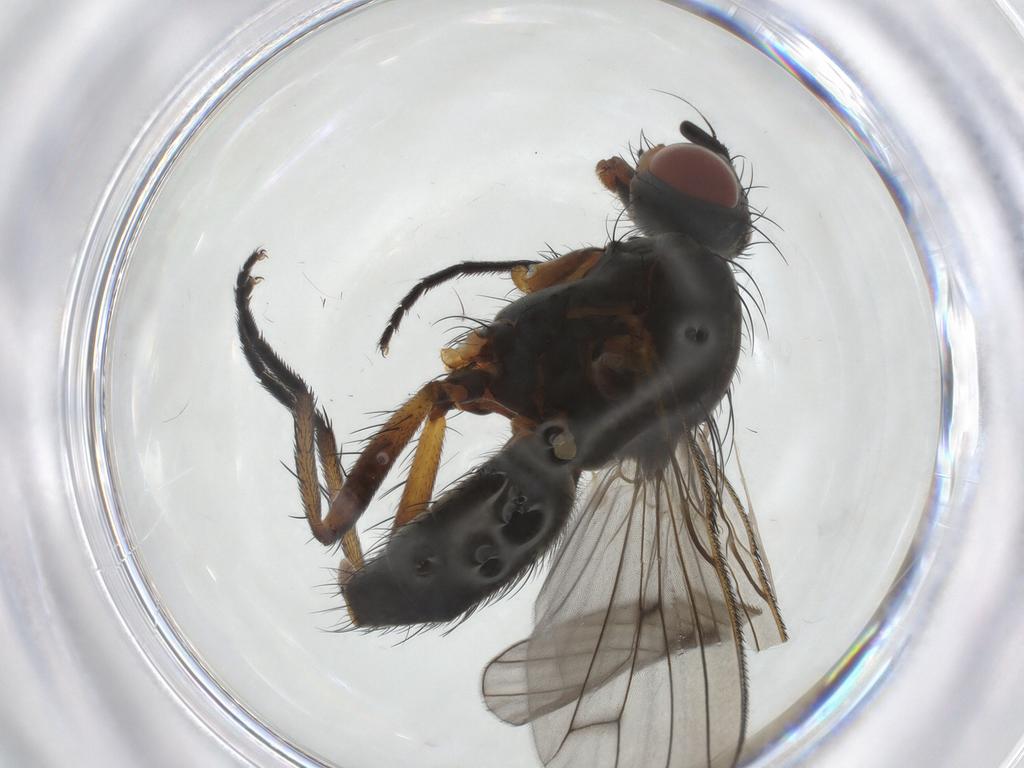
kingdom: Animalia
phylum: Arthropoda
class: Insecta
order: Diptera
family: Anthomyiidae
